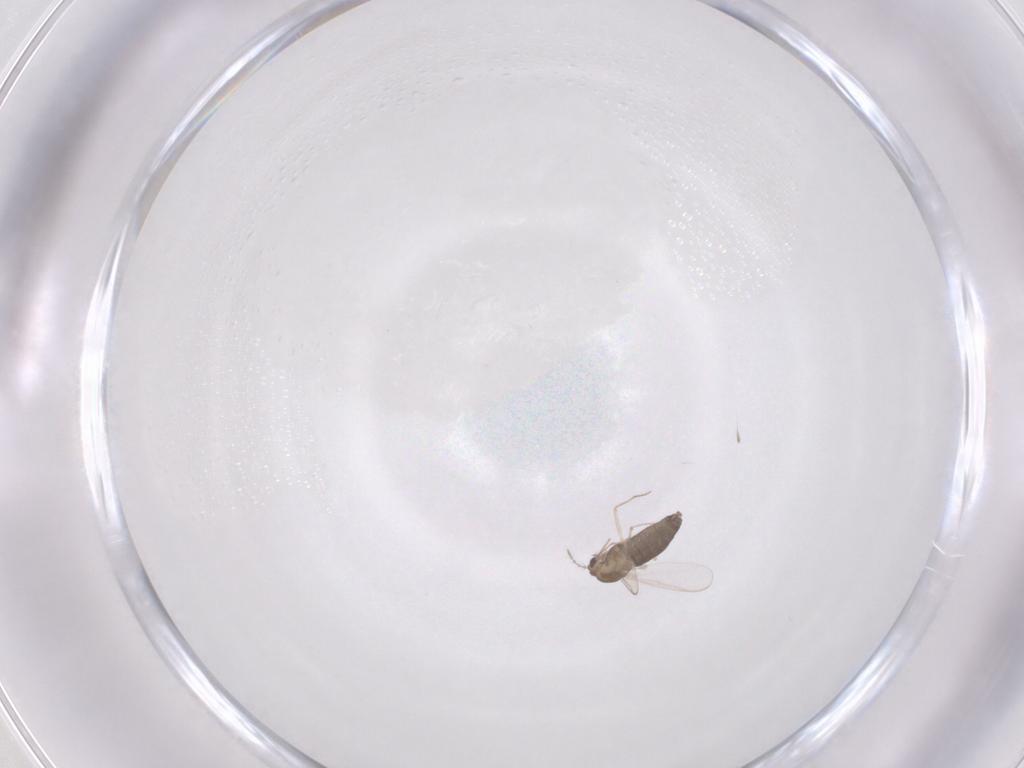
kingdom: Animalia
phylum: Arthropoda
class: Insecta
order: Diptera
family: Chironomidae
